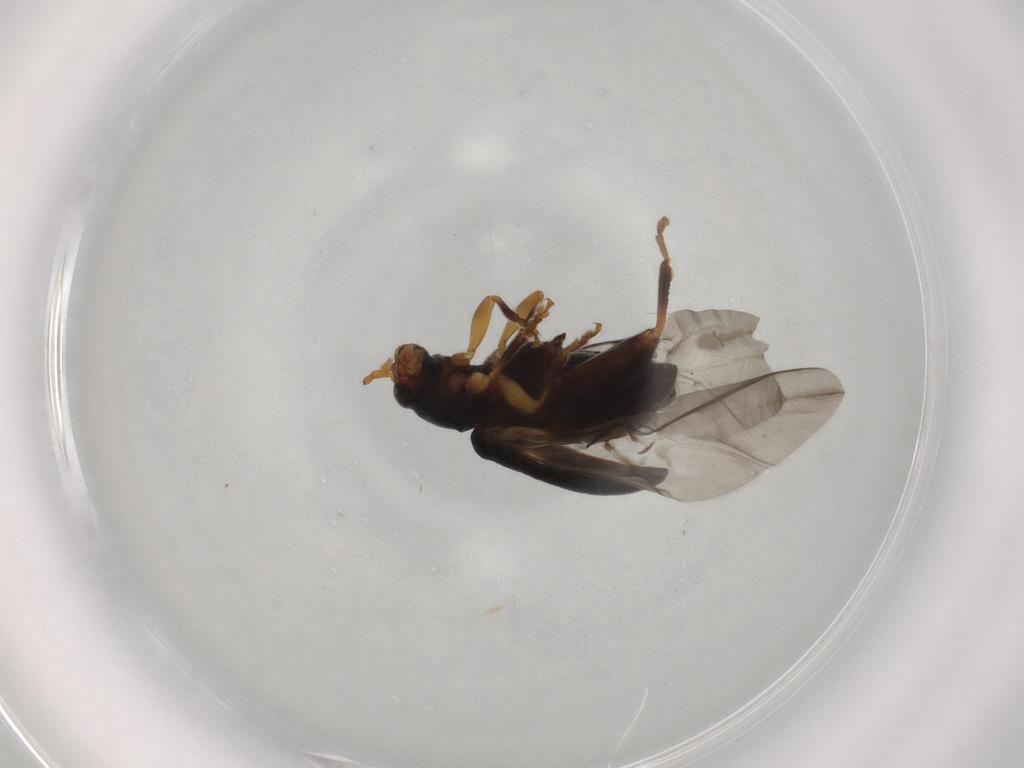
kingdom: Animalia
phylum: Arthropoda
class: Insecta
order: Coleoptera
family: Chrysomelidae
